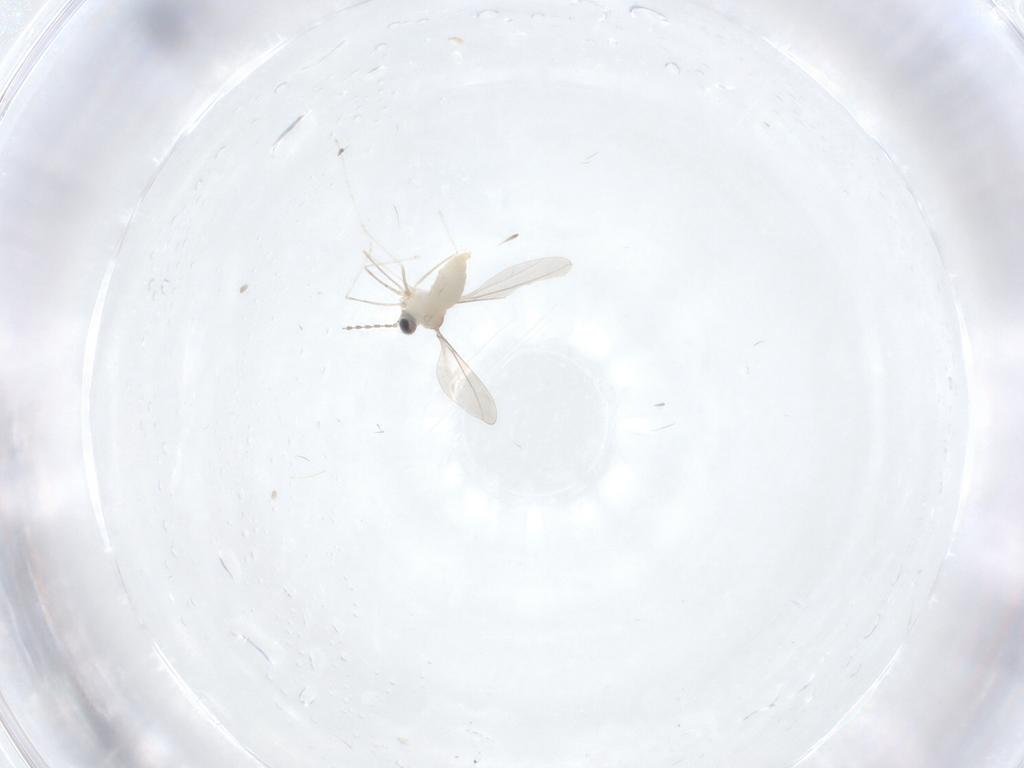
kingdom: Animalia
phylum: Arthropoda
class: Insecta
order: Diptera
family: Cecidomyiidae
